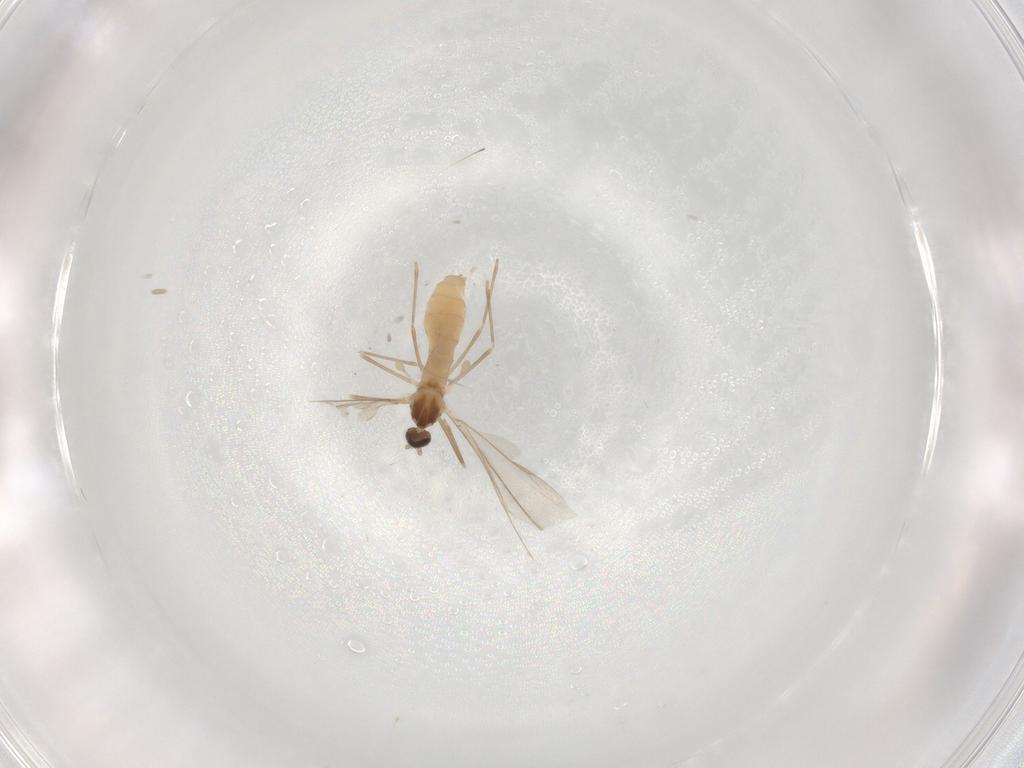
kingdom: Animalia
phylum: Arthropoda
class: Insecta
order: Diptera
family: Cecidomyiidae
